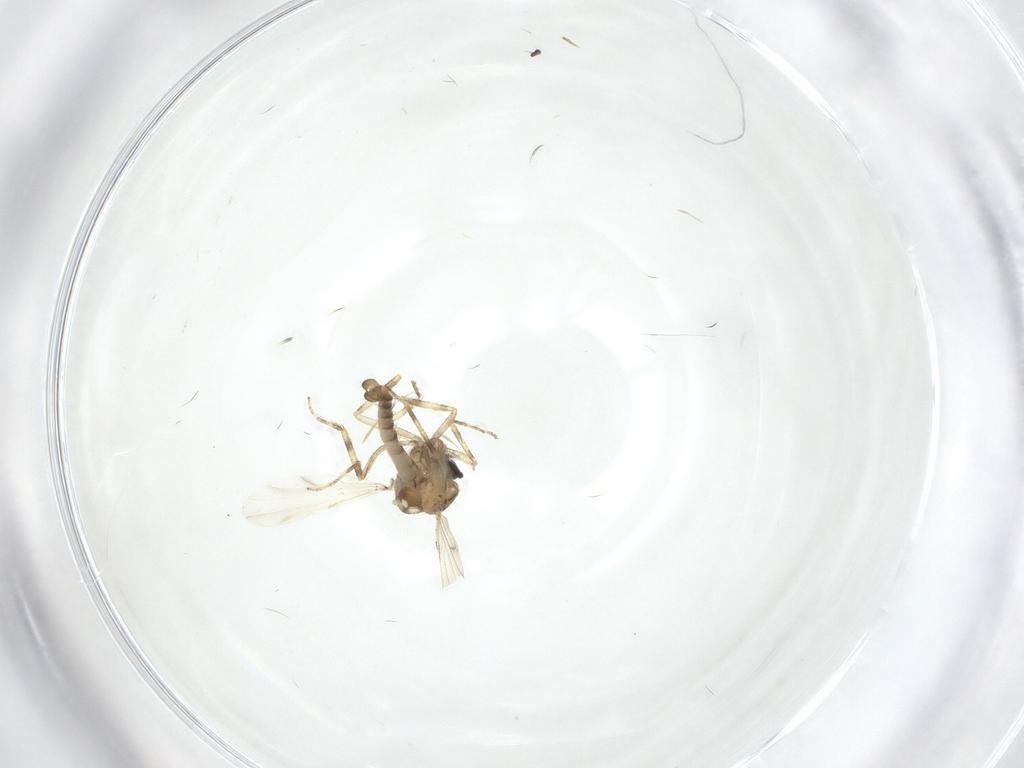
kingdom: Animalia
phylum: Arthropoda
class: Insecta
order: Diptera
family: Ceratopogonidae
